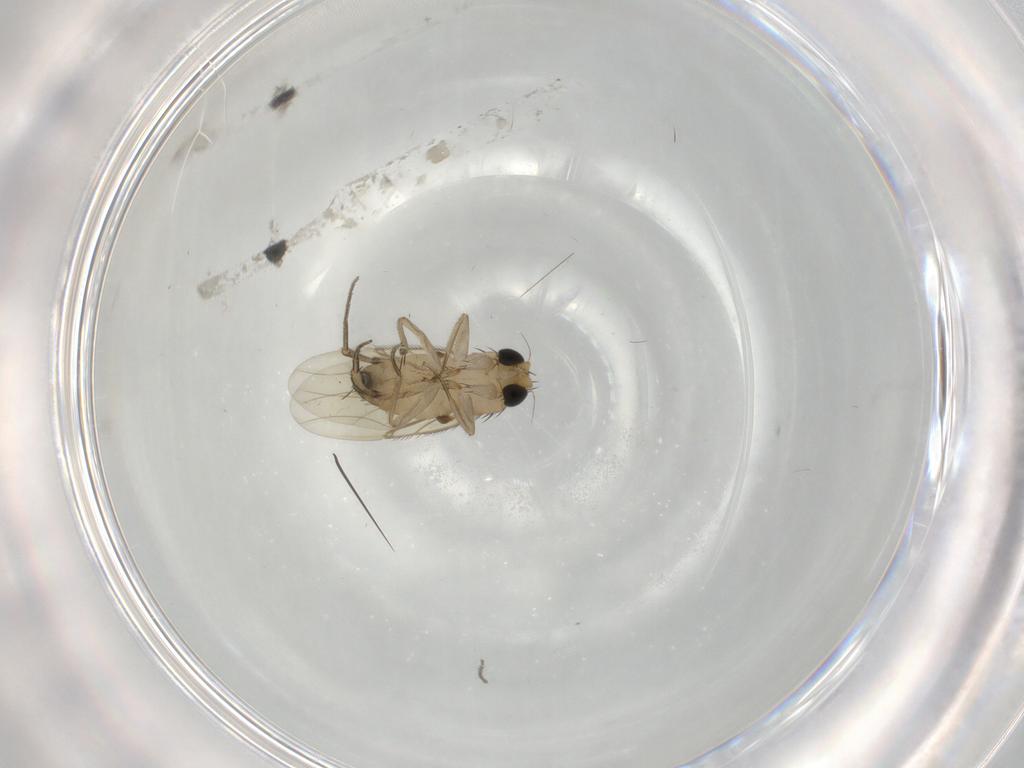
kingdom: Animalia
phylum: Arthropoda
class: Insecta
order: Diptera
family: Phoridae
